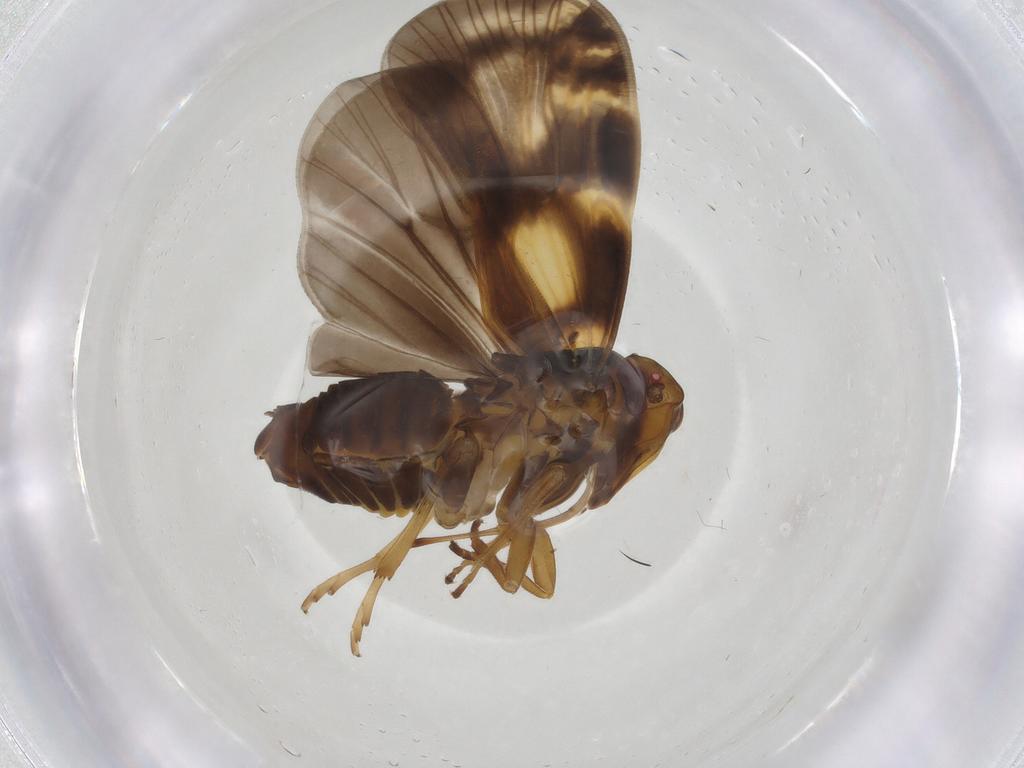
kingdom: Animalia
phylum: Arthropoda
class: Insecta
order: Hemiptera
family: Cixiidae
